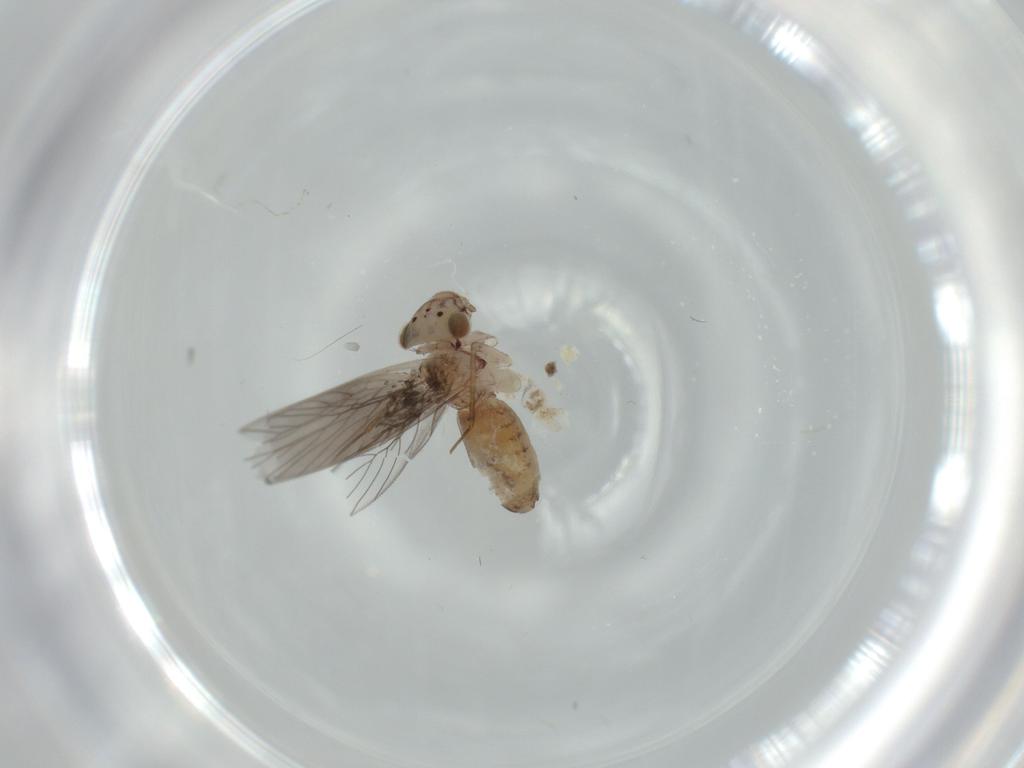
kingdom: Animalia
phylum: Arthropoda
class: Insecta
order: Psocodea
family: Lepidopsocidae
